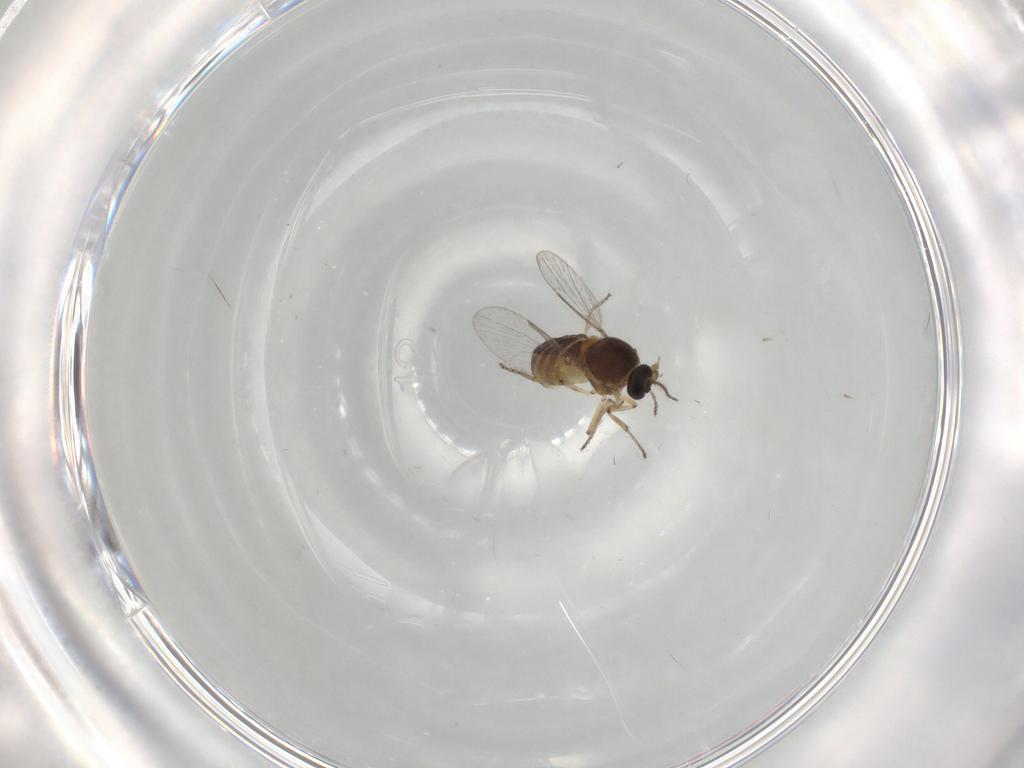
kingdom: Animalia
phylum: Arthropoda
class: Insecta
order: Diptera
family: Ceratopogonidae
